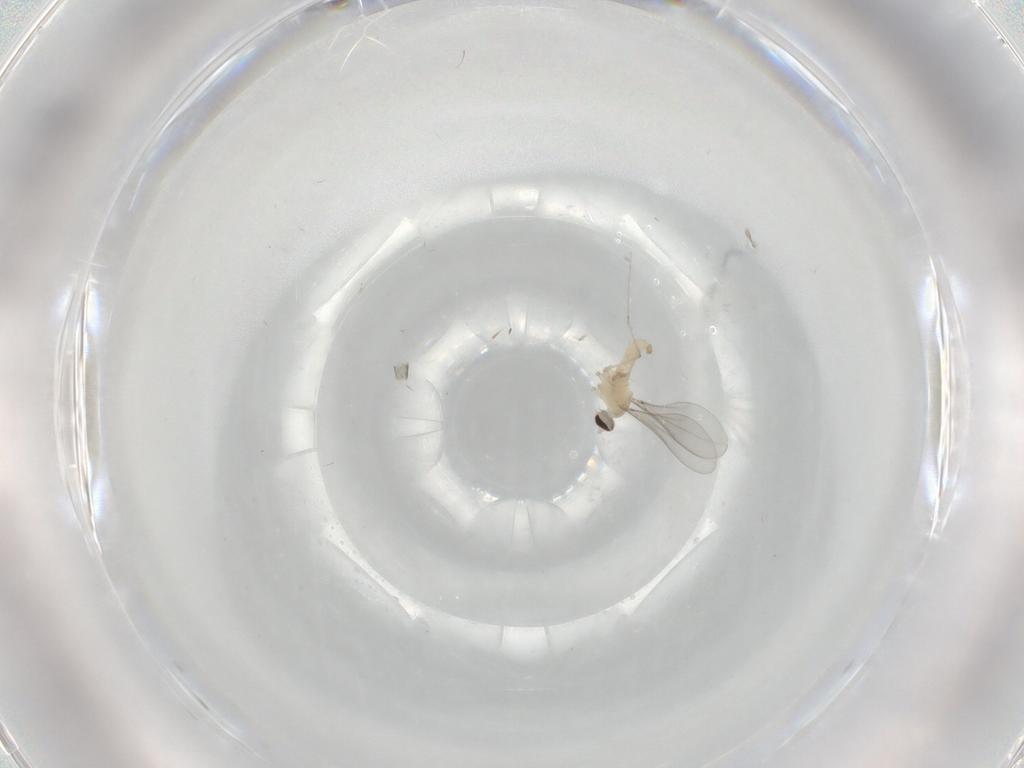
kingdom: Animalia
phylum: Arthropoda
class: Insecta
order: Diptera
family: Cecidomyiidae
